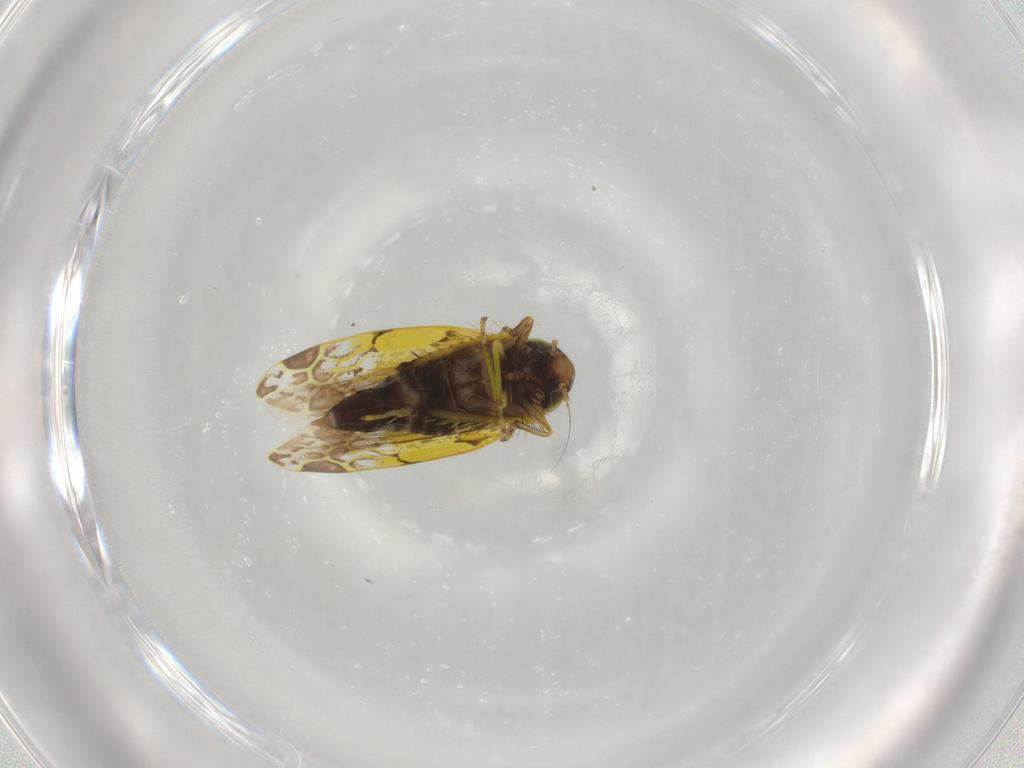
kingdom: Animalia
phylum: Arthropoda
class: Insecta
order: Hemiptera
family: Cicadellidae
